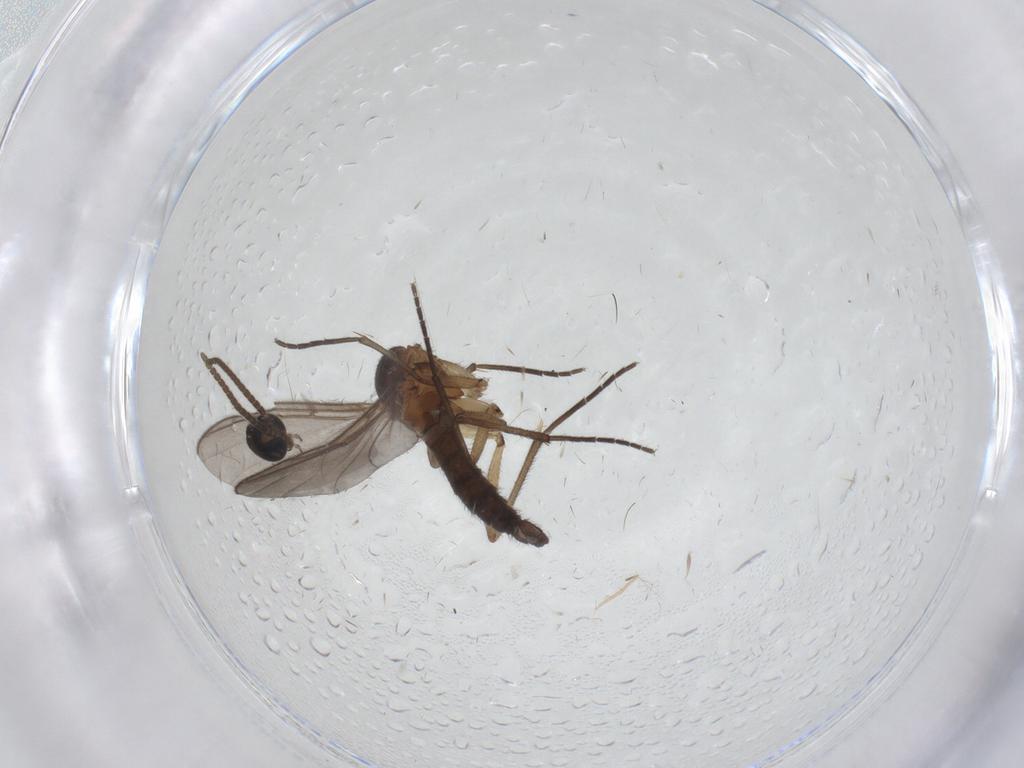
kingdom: Animalia
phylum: Arthropoda
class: Insecta
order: Diptera
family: Sciaridae
